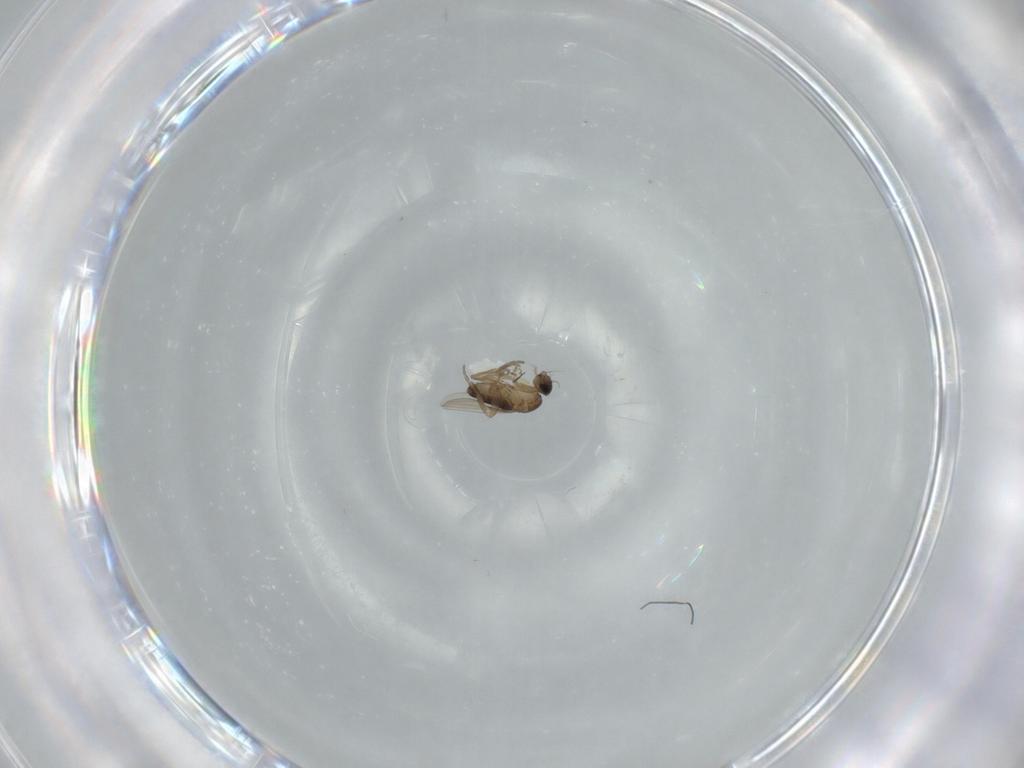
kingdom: Animalia
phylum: Arthropoda
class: Insecta
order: Diptera
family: Phoridae
